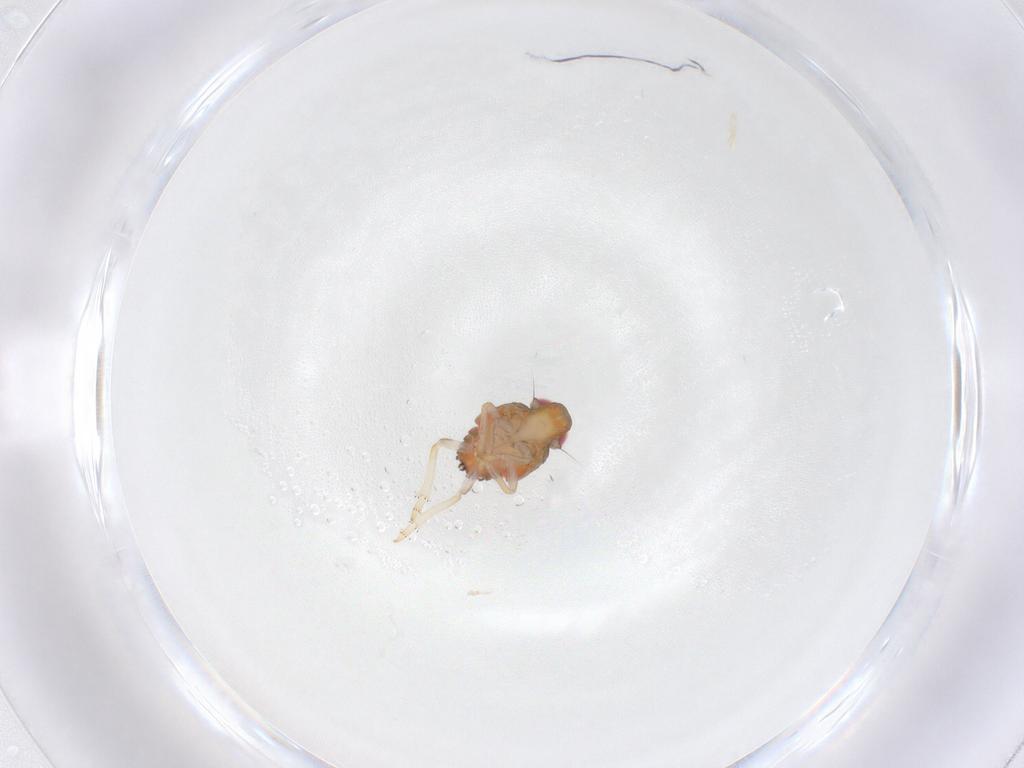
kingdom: Animalia
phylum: Arthropoda
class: Insecta
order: Hemiptera
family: Issidae
